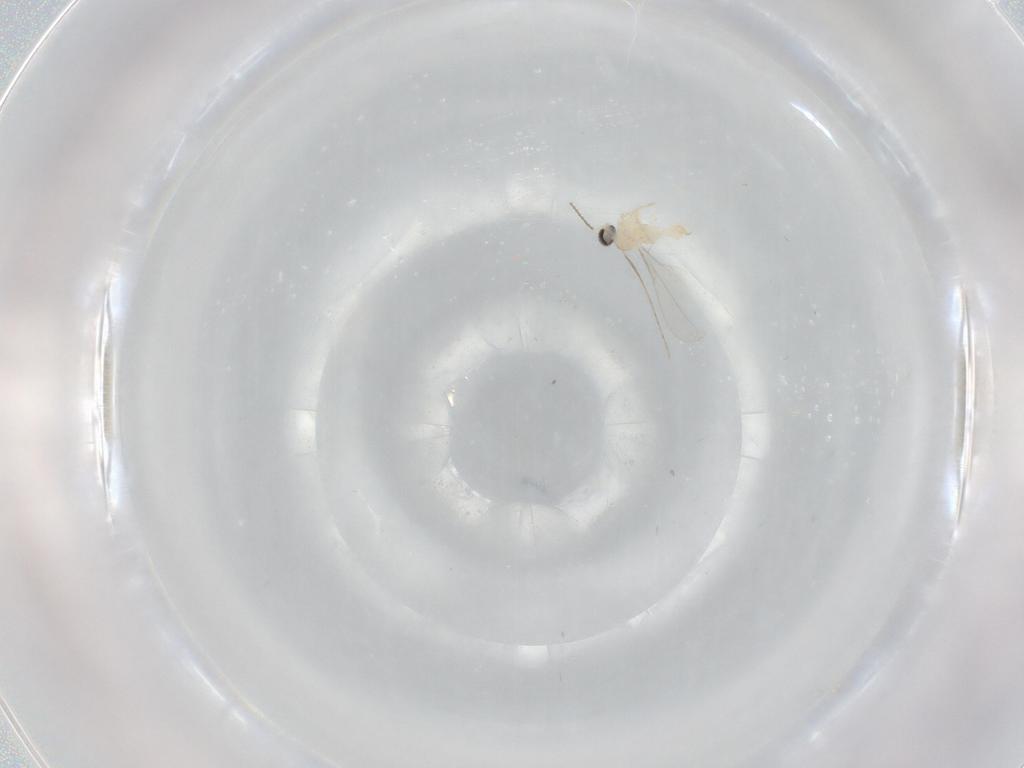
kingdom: Animalia
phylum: Arthropoda
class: Insecta
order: Diptera
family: Cecidomyiidae
